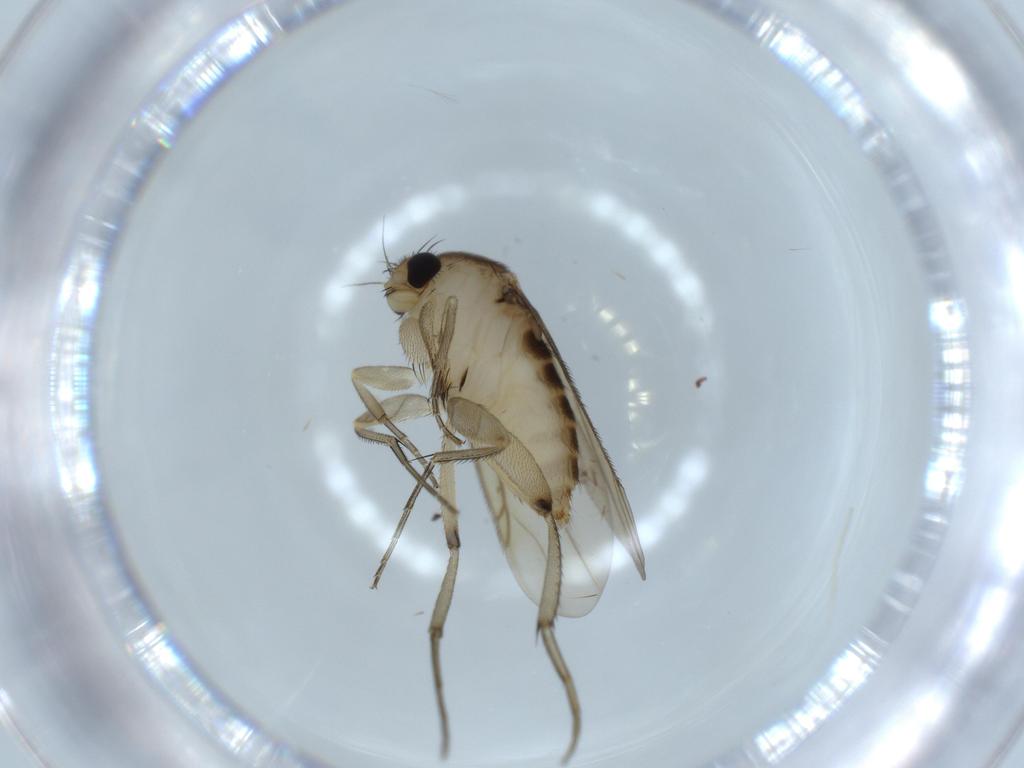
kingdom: Animalia
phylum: Arthropoda
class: Insecta
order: Diptera
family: Phoridae
